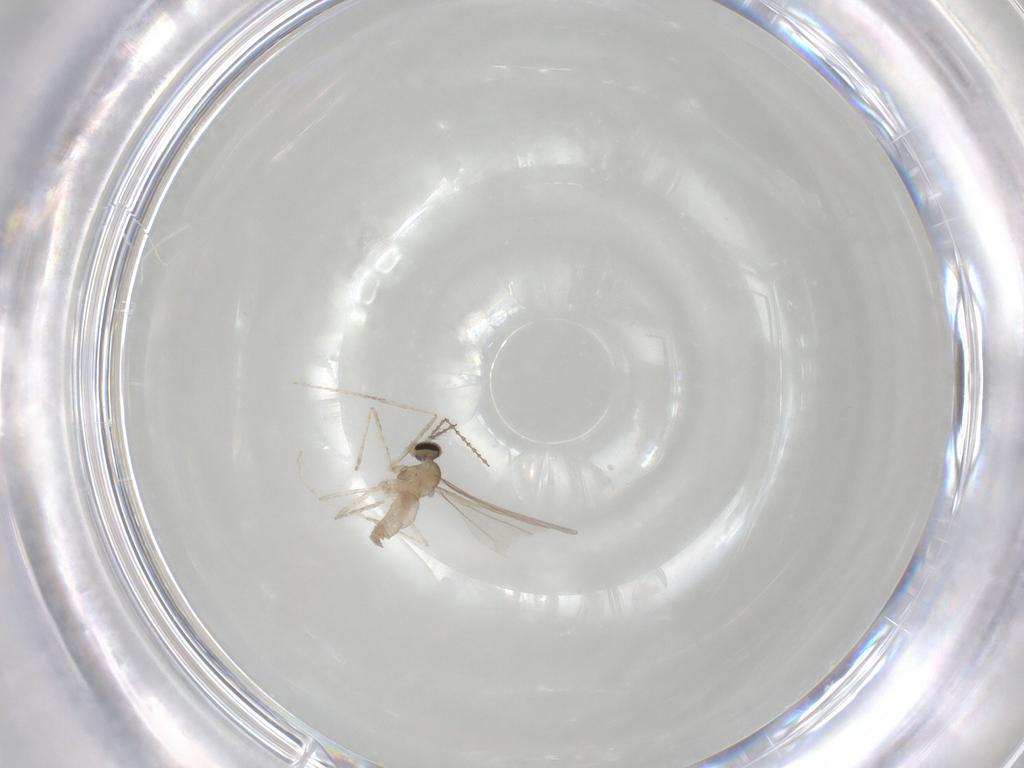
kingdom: Animalia
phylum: Arthropoda
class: Insecta
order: Diptera
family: Cecidomyiidae
